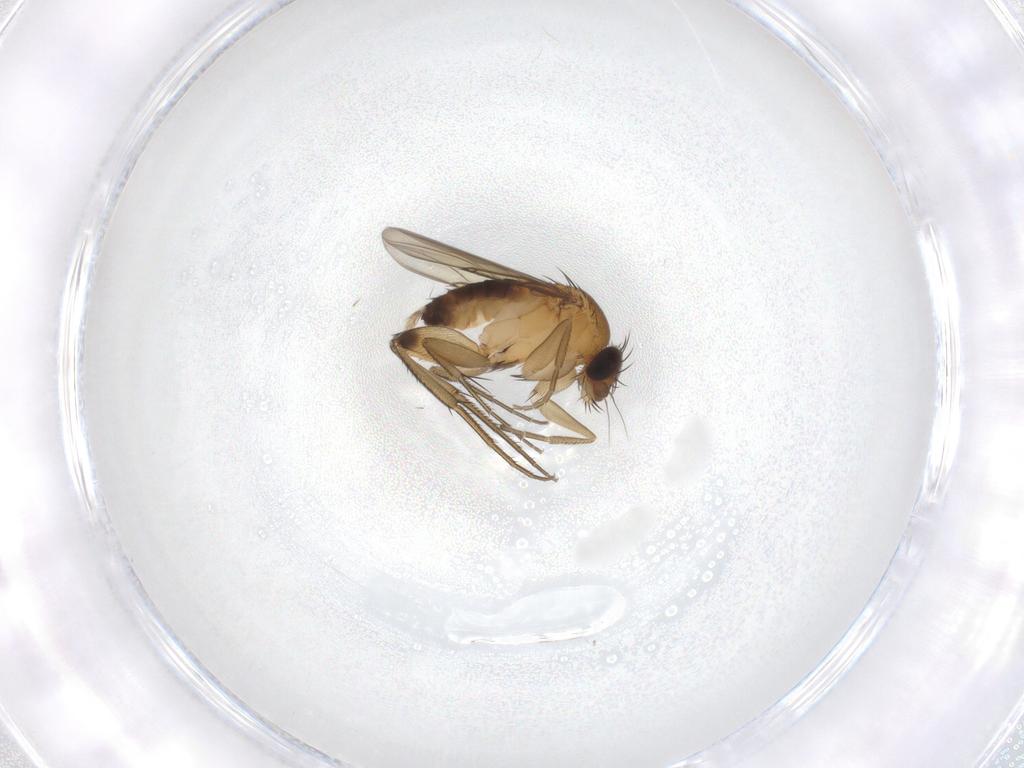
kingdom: Animalia
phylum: Arthropoda
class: Insecta
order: Diptera
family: Phoridae
